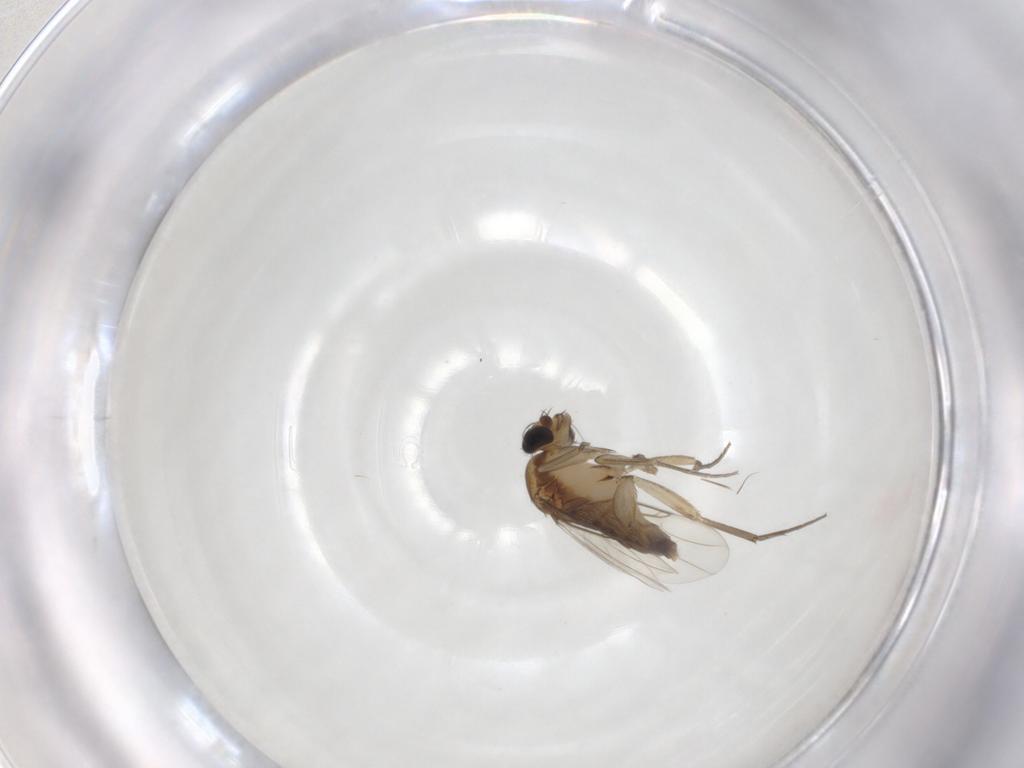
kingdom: Animalia
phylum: Arthropoda
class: Insecta
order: Diptera
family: Phoridae
